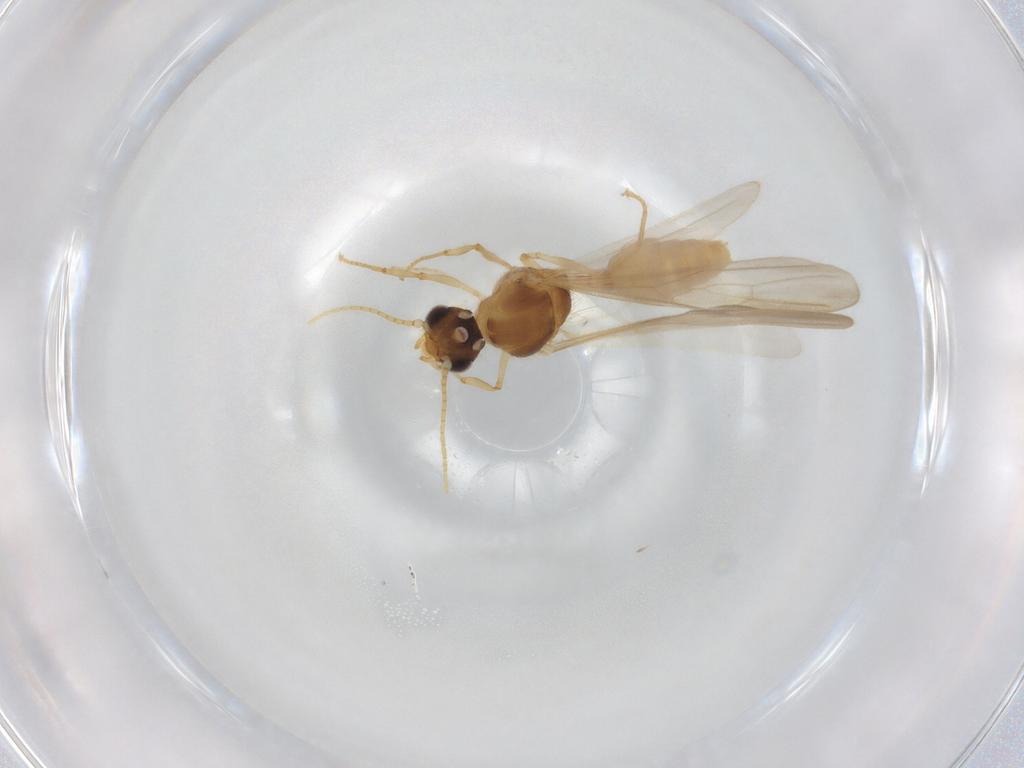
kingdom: Animalia
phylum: Arthropoda
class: Insecta
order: Hymenoptera
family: Formicidae
